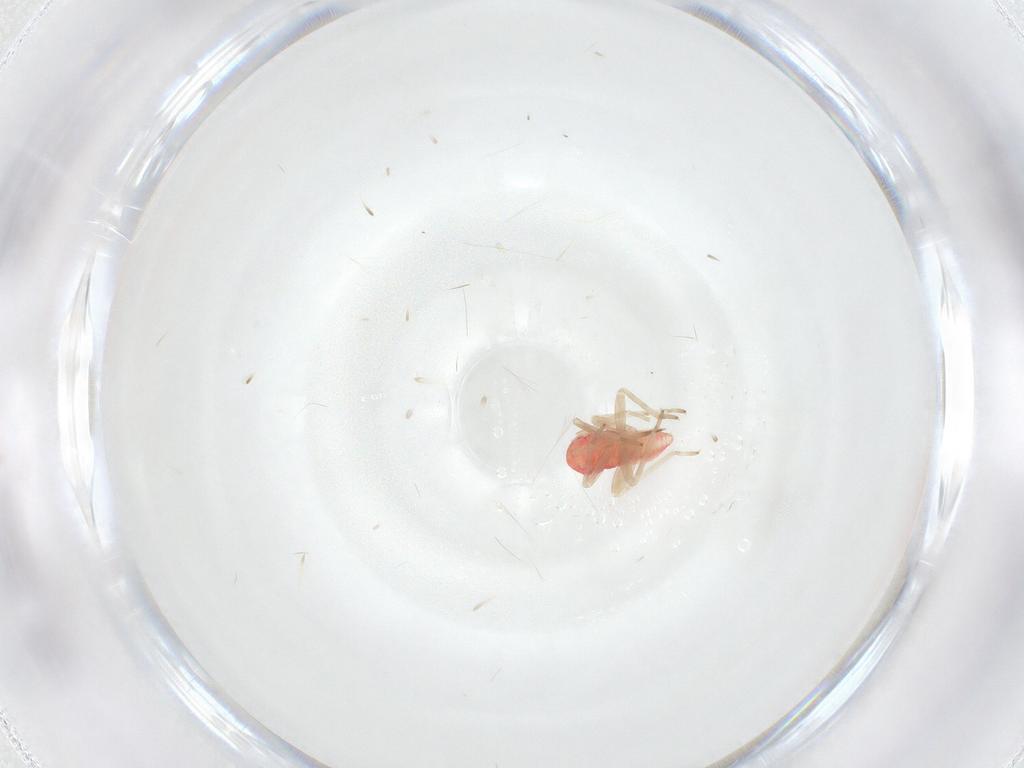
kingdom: Animalia
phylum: Arthropoda
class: Insecta
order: Hemiptera
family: Miridae
